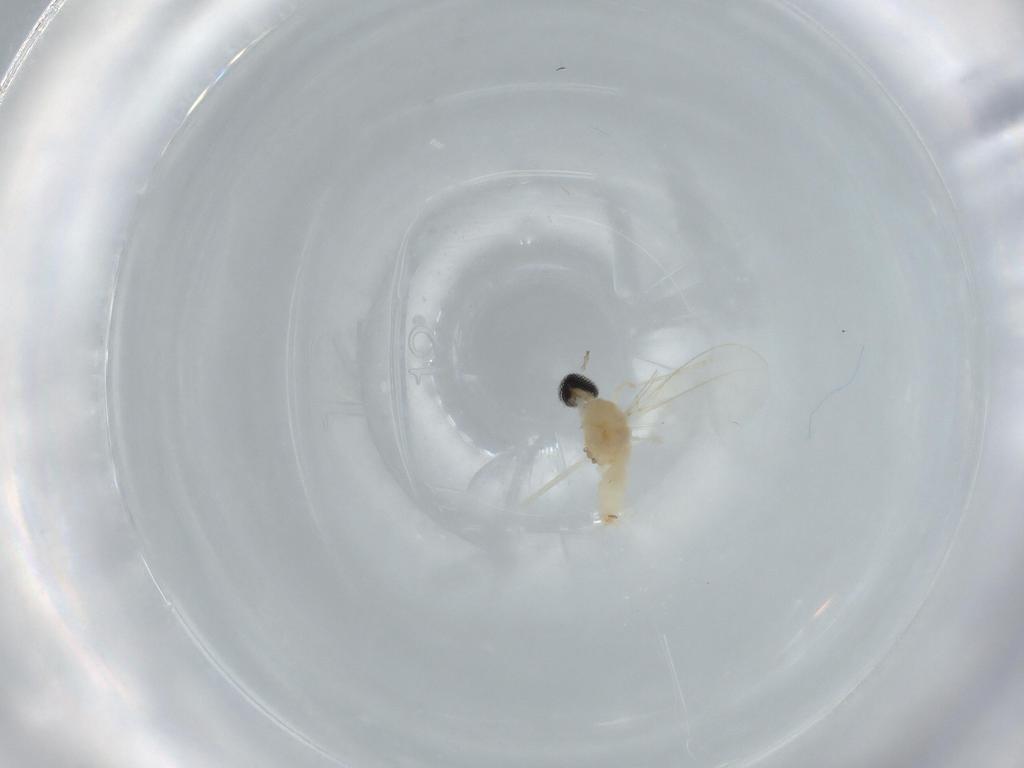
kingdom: Animalia
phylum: Arthropoda
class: Insecta
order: Diptera
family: Cecidomyiidae
